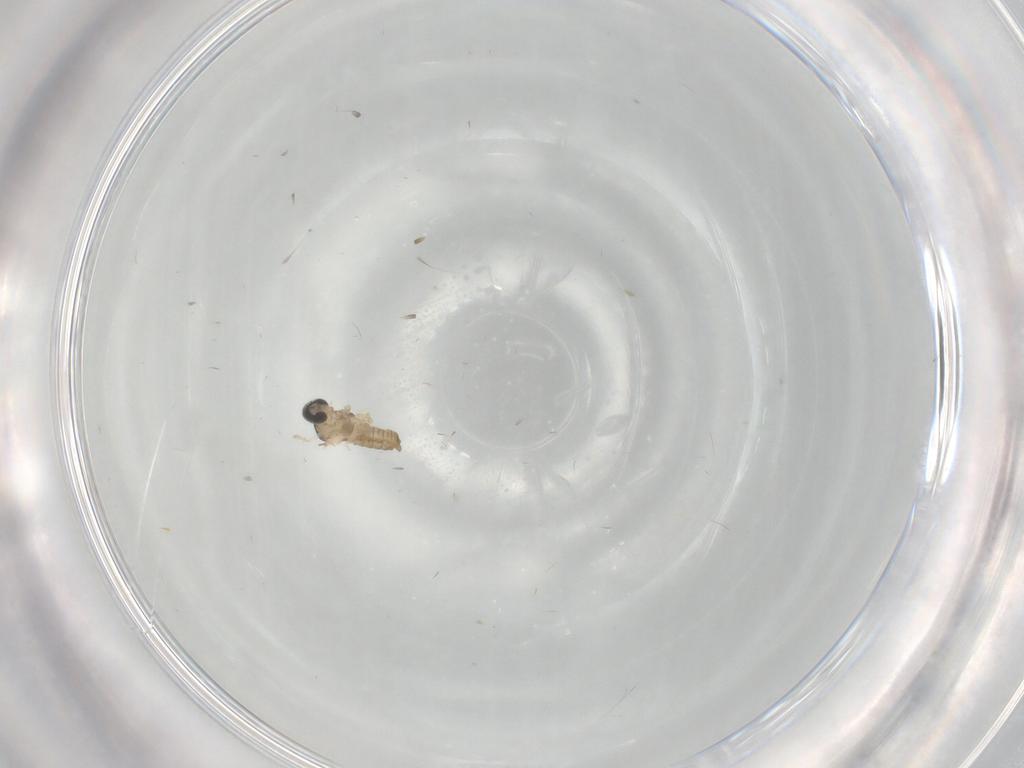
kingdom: Animalia
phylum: Arthropoda
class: Insecta
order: Diptera
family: Cecidomyiidae
